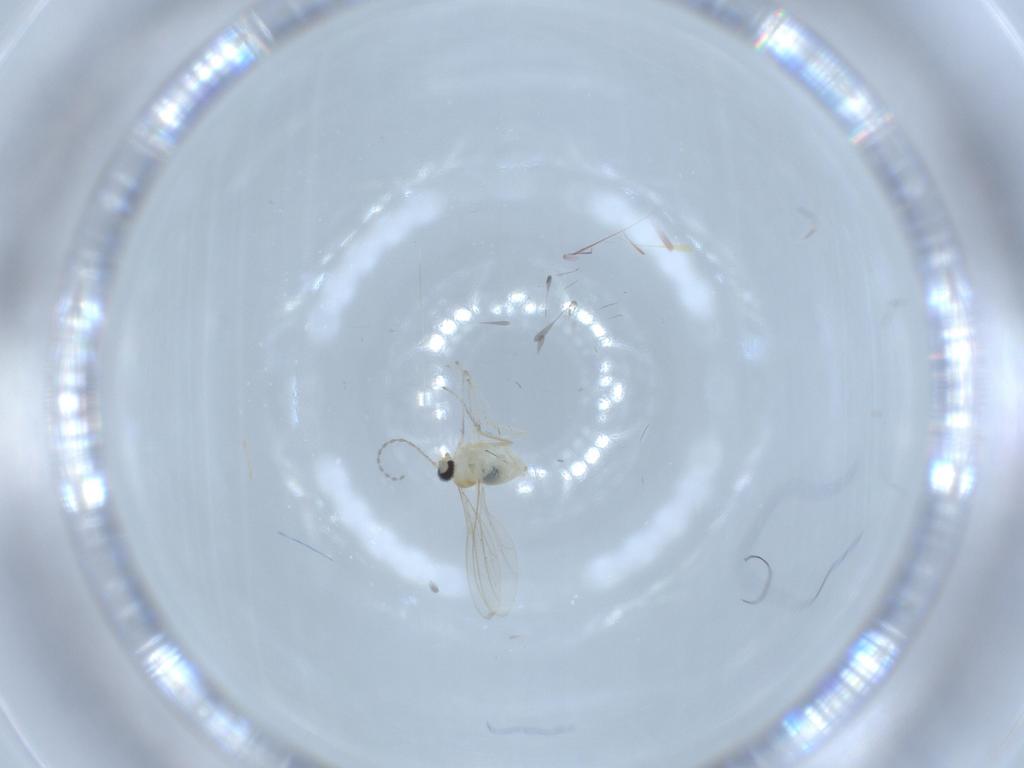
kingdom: Animalia
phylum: Arthropoda
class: Insecta
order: Diptera
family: Cecidomyiidae
